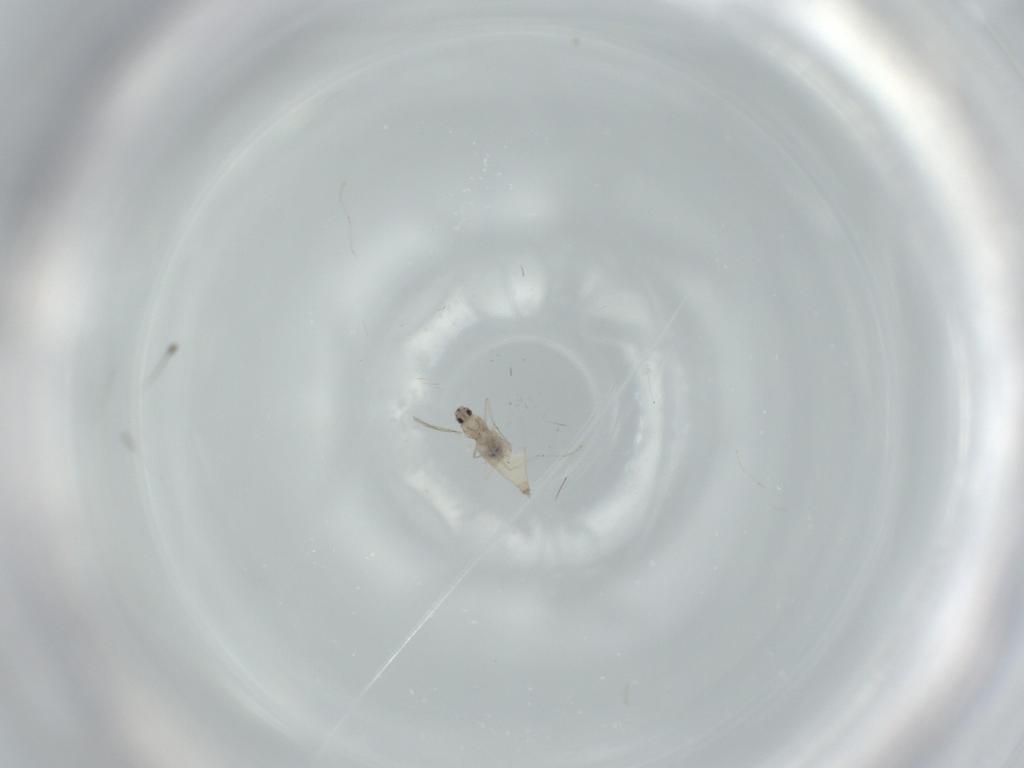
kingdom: Animalia
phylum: Arthropoda
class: Insecta
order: Diptera
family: Cecidomyiidae
